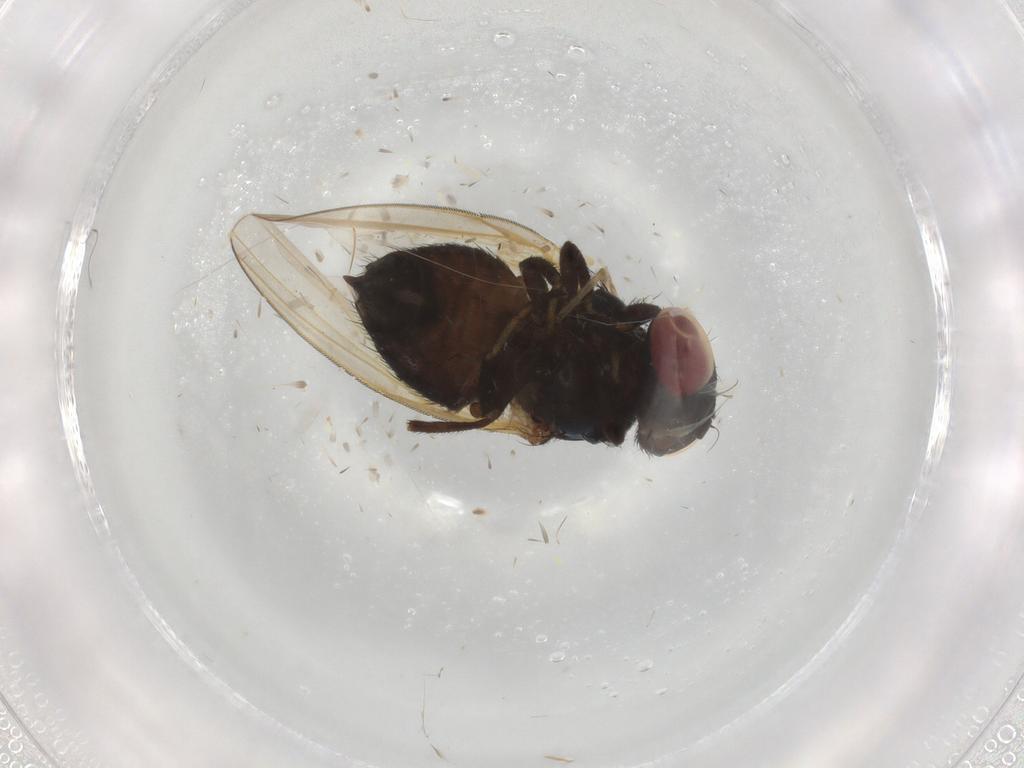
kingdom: Animalia
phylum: Arthropoda
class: Insecta
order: Diptera
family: Lonchaeidae
